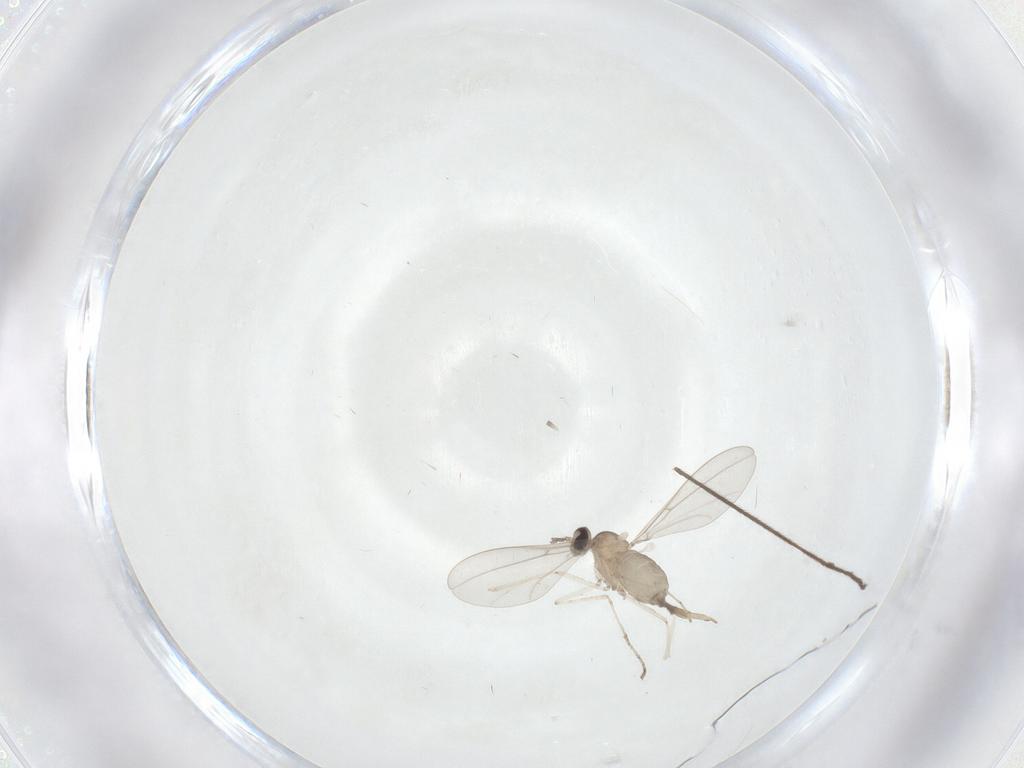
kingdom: Animalia
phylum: Arthropoda
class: Insecta
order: Diptera
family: Cecidomyiidae
